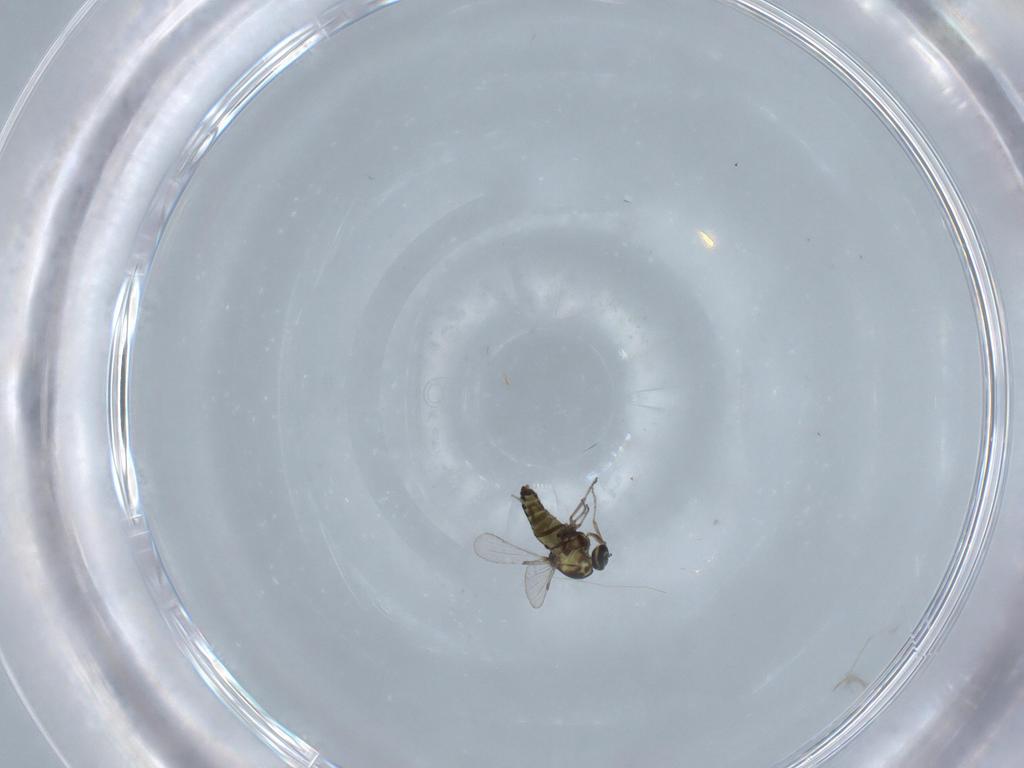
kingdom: Animalia
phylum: Arthropoda
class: Insecta
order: Diptera
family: Ceratopogonidae
